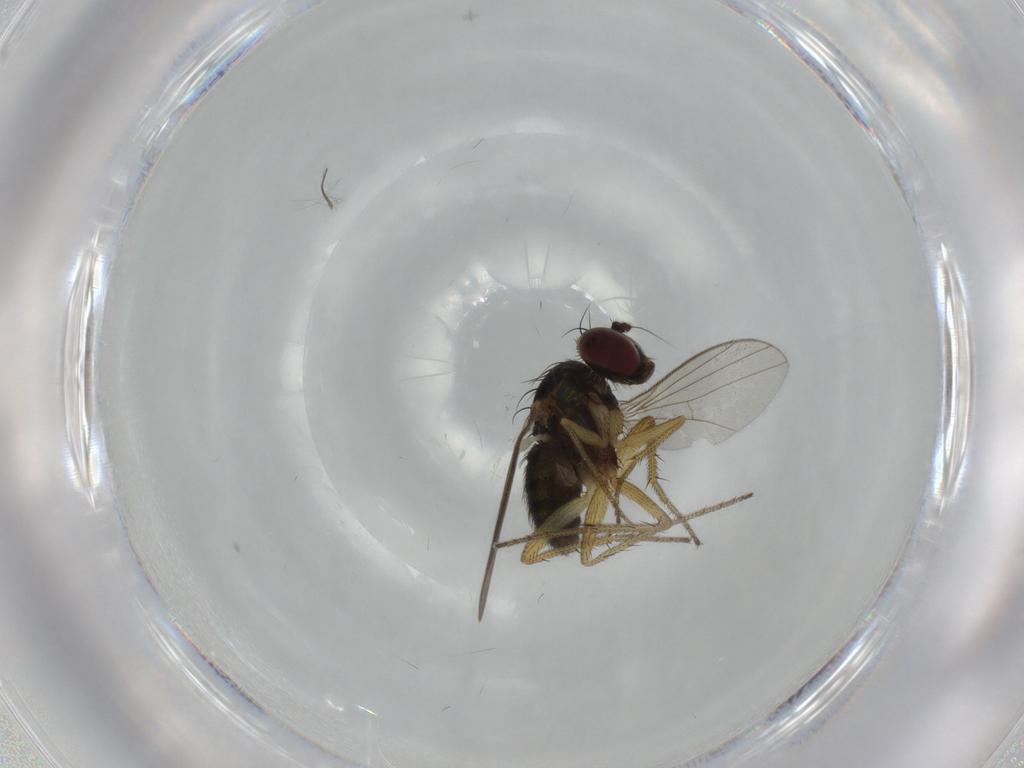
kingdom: Animalia
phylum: Arthropoda
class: Insecta
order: Diptera
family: Dolichopodidae
